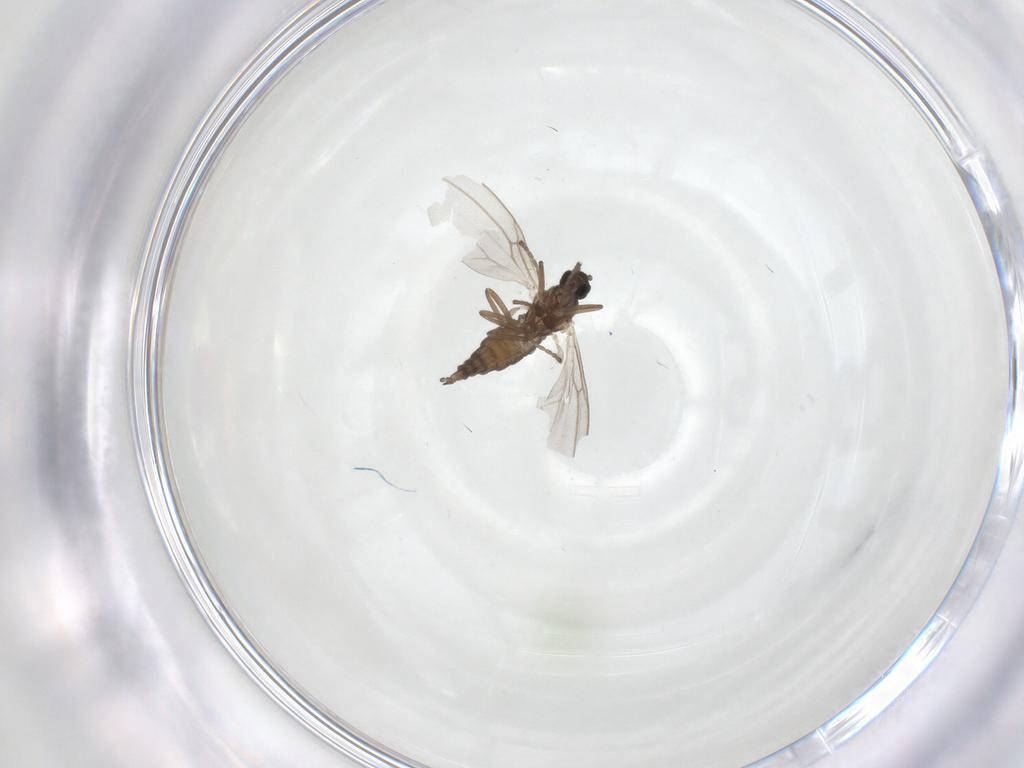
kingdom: Animalia
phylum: Arthropoda
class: Insecta
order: Diptera
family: Cecidomyiidae
